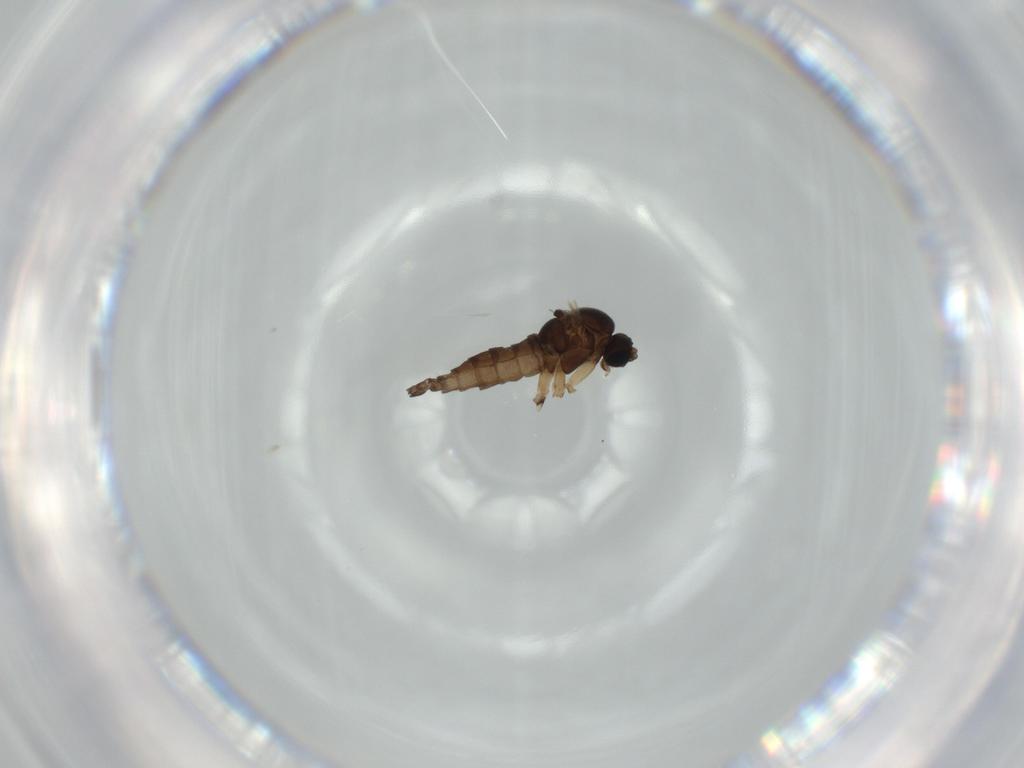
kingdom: Animalia
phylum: Arthropoda
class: Insecta
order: Diptera
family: Sciaridae
